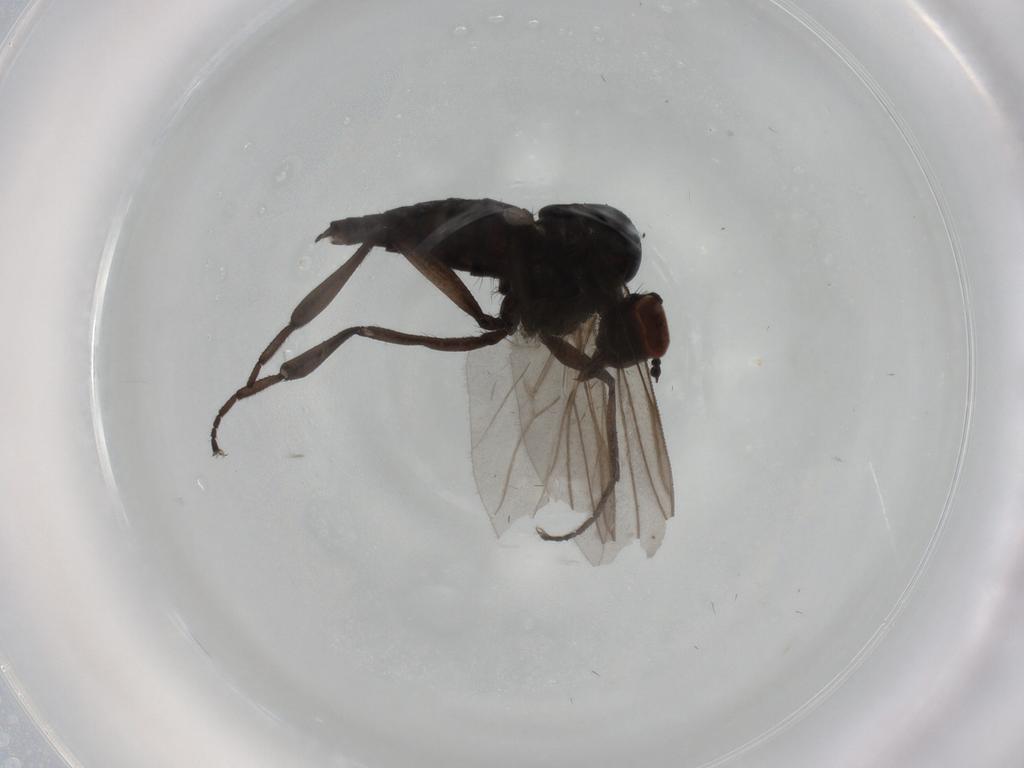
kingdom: Animalia
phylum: Arthropoda
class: Insecta
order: Diptera
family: Hybotidae
